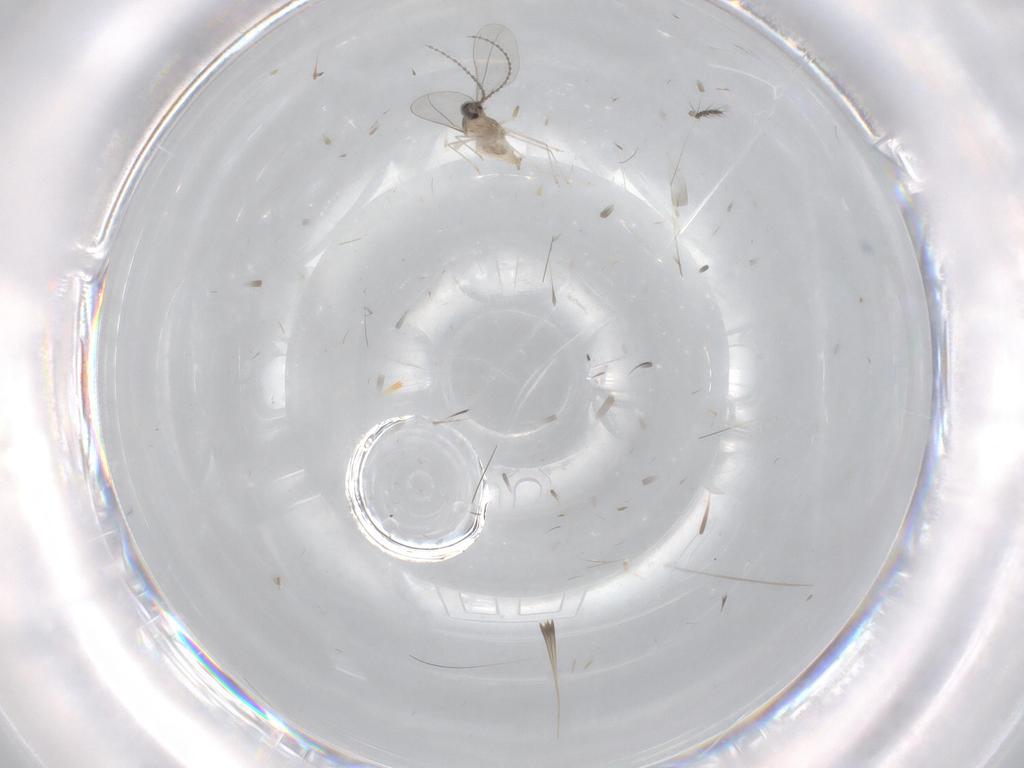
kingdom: Animalia
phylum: Arthropoda
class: Insecta
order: Diptera
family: Cecidomyiidae
